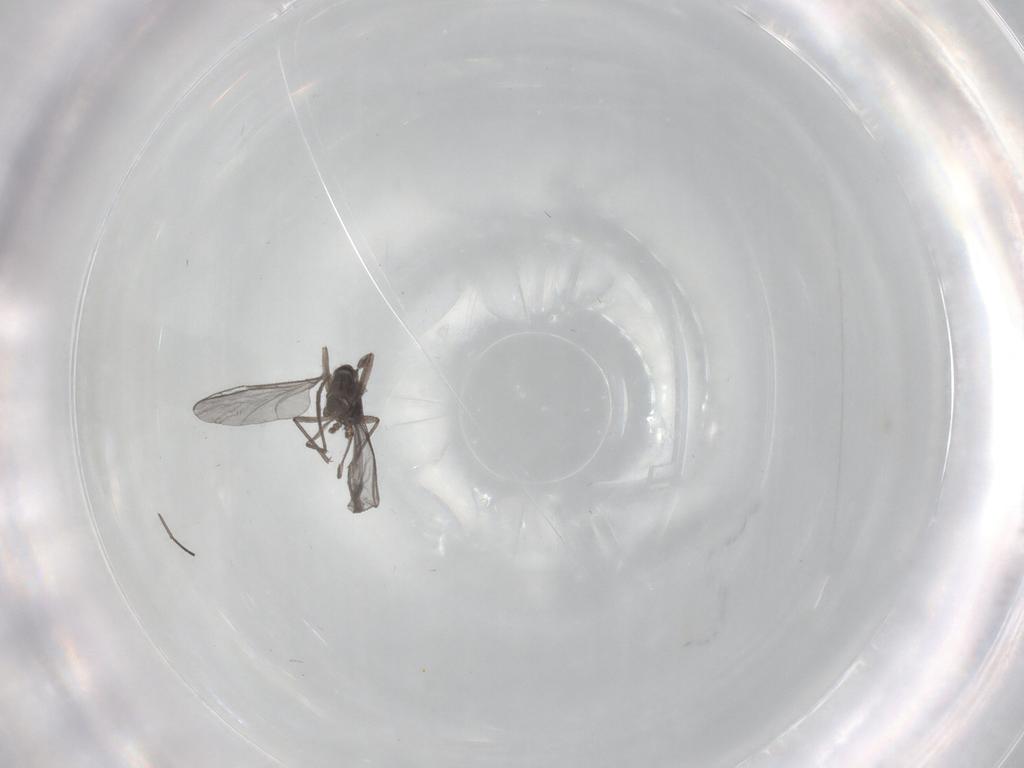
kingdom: Animalia
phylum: Arthropoda
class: Insecta
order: Diptera
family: Cecidomyiidae
